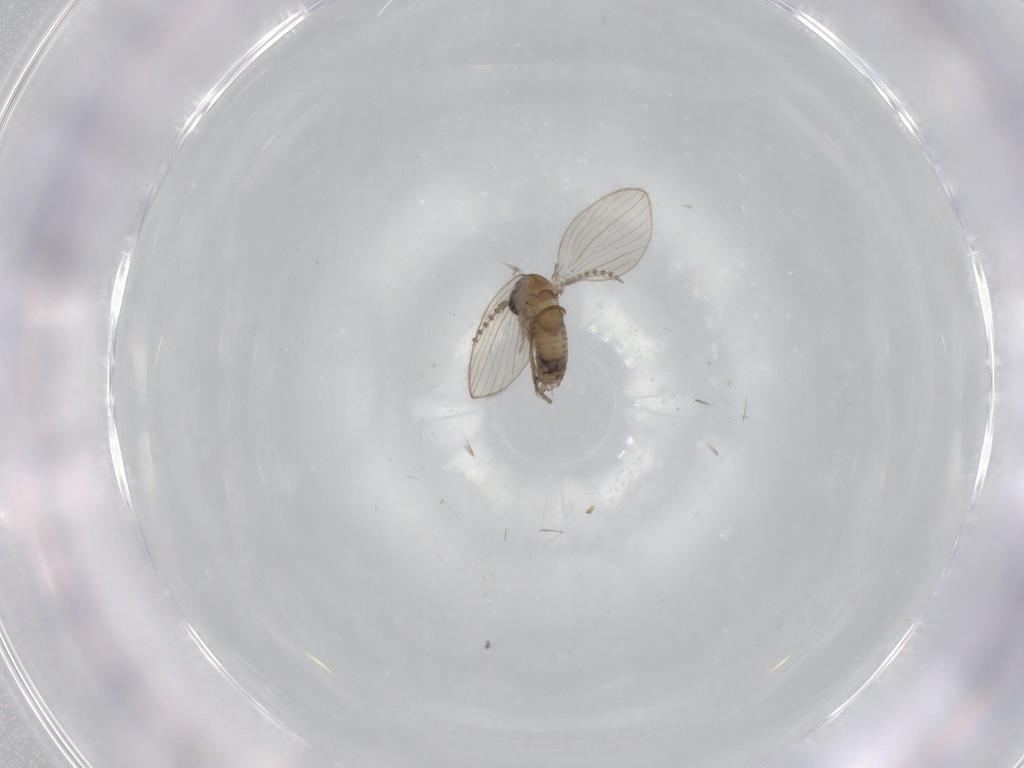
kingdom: Animalia
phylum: Arthropoda
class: Insecta
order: Diptera
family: Psychodidae
